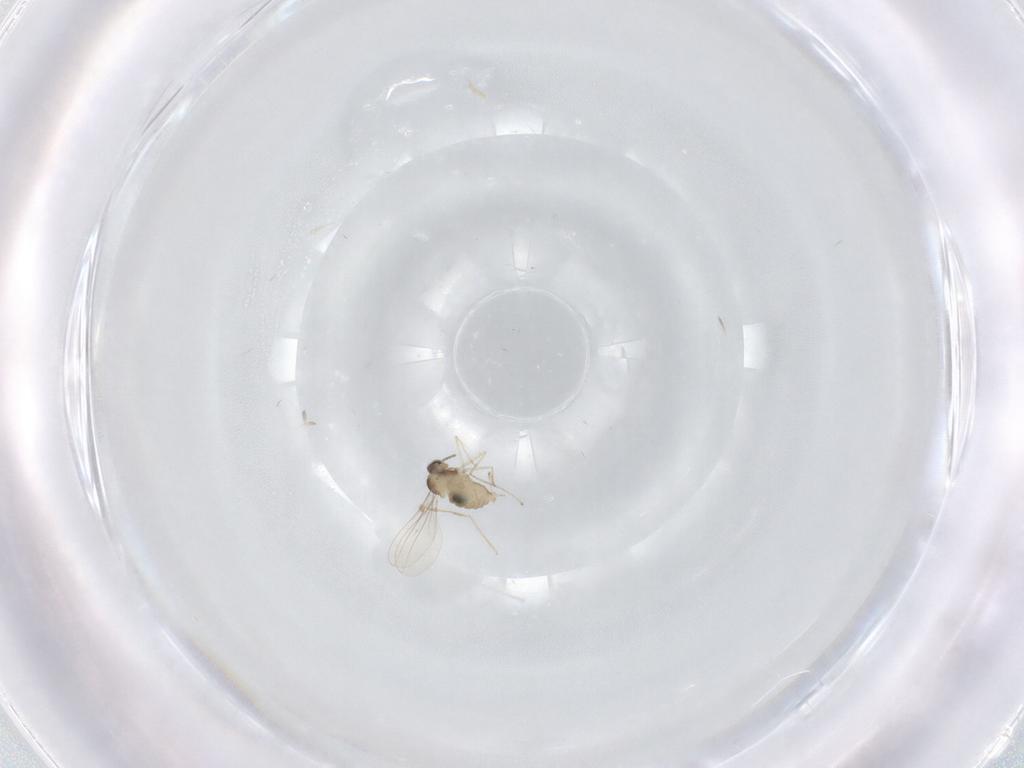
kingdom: Animalia
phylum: Arthropoda
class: Insecta
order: Diptera
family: Cecidomyiidae
